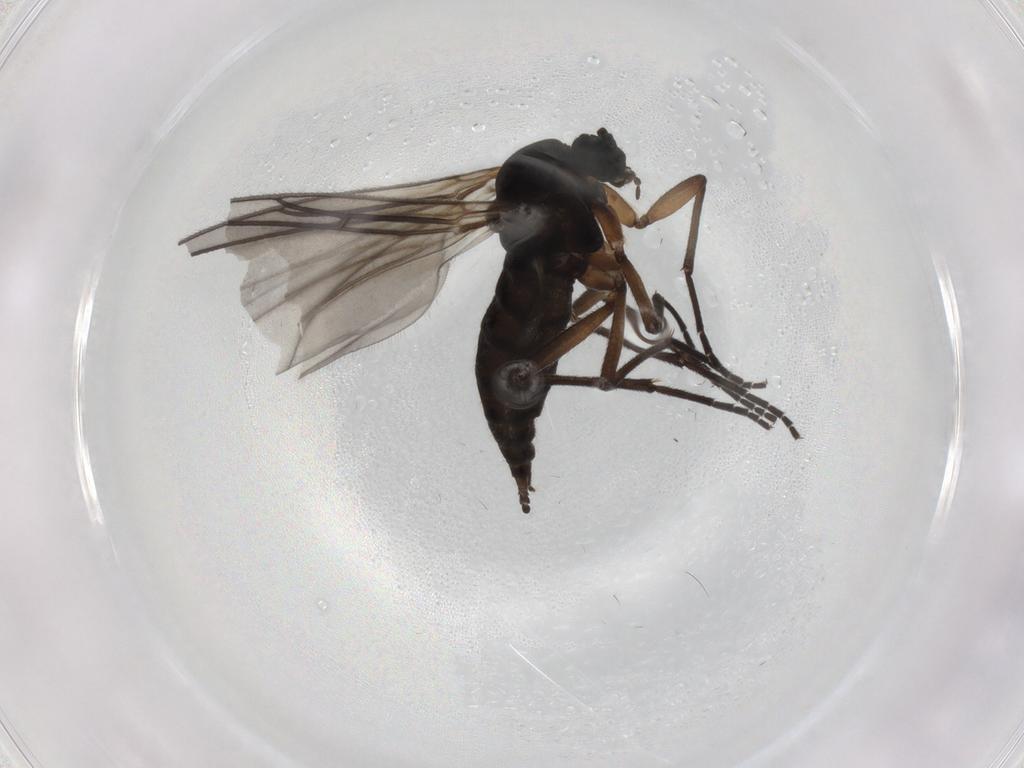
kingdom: Animalia
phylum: Arthropoda
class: Insecta
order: Diptera
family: Sciaridae
